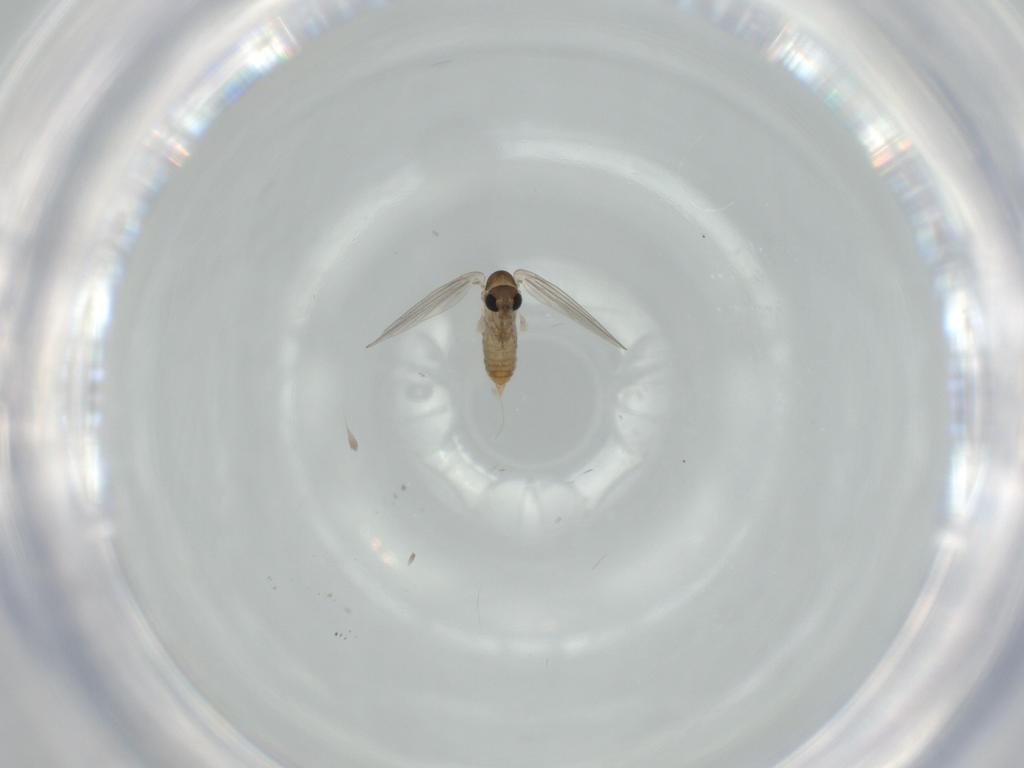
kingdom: Animalia
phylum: Arthropoda
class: Insecta
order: Diptera
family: Psychodidae
